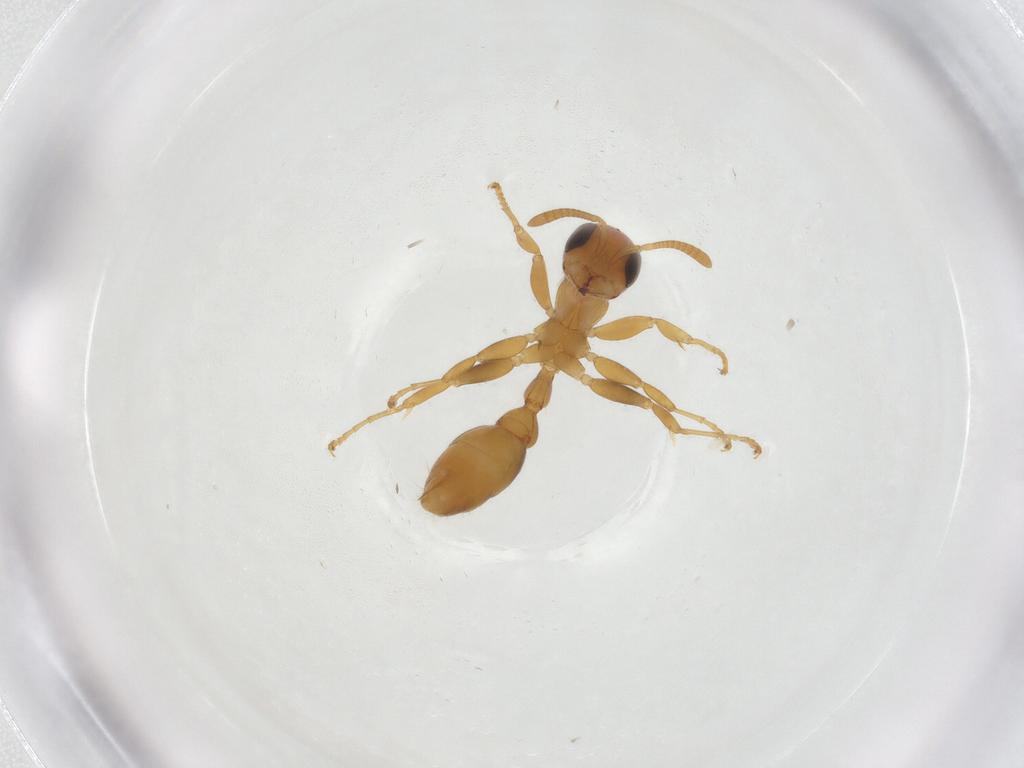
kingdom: Animalia
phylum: Arthropoda
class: Insecta
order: Hymenoptera
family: Formicidae
